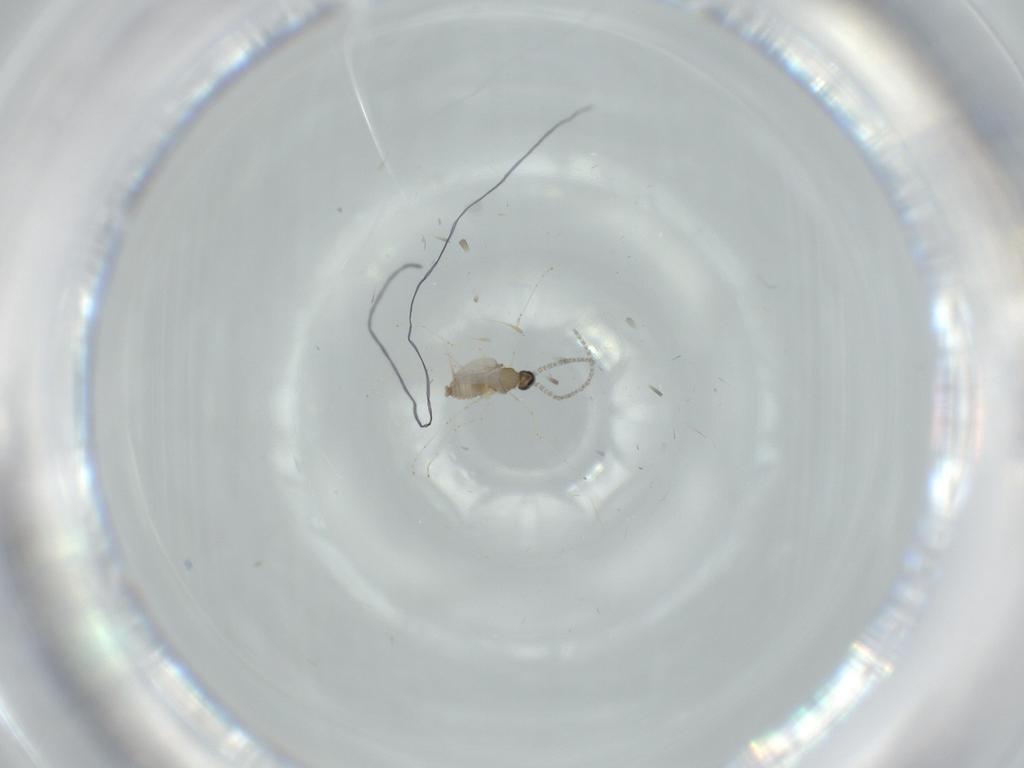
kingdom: Animalia
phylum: Arthropoda
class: Insecta
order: Diptera
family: Cecidomyiidae
